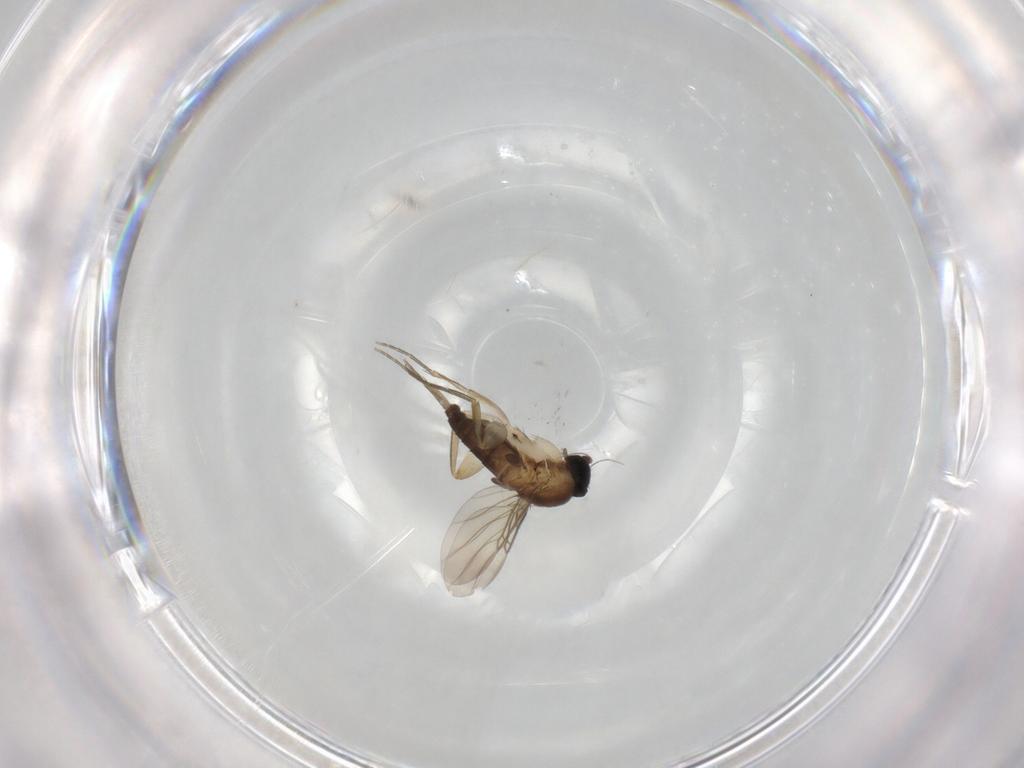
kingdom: Animalia
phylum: Arthropoda
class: Insecta
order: Diptera
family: Phoridae
